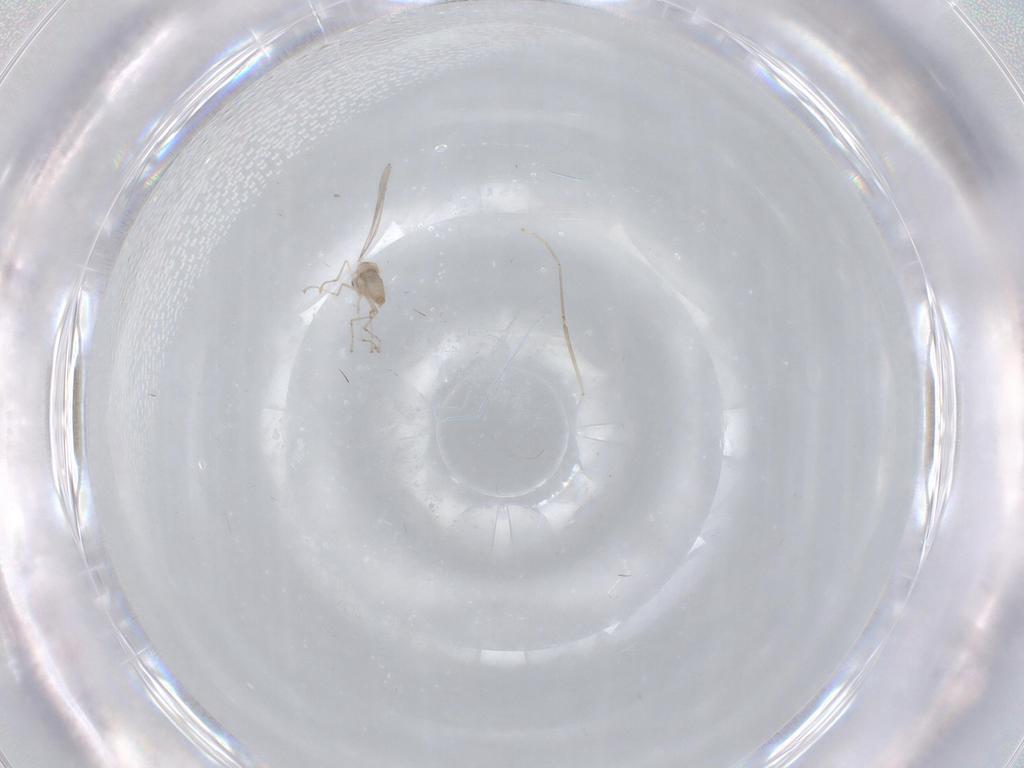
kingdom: Animalia
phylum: Arthropoda
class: Insecta
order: Diptera
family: Cecidomyiidae
